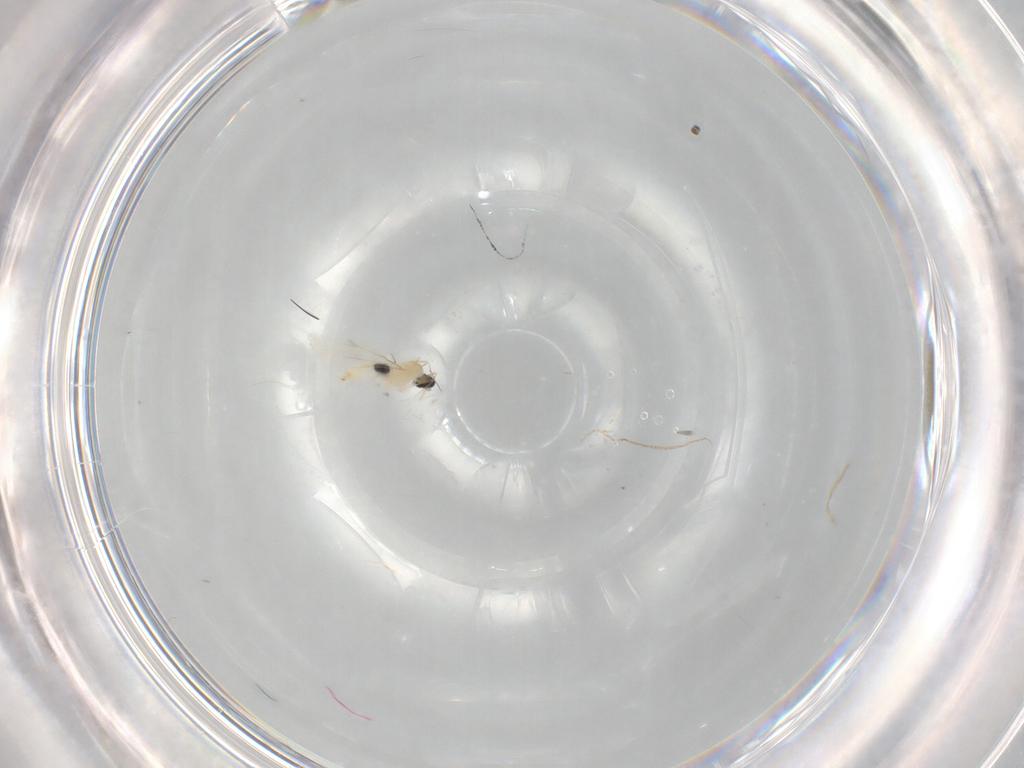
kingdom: Animalia
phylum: Arthropoda
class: Insecta
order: Diptera
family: Cecidomyiidae
